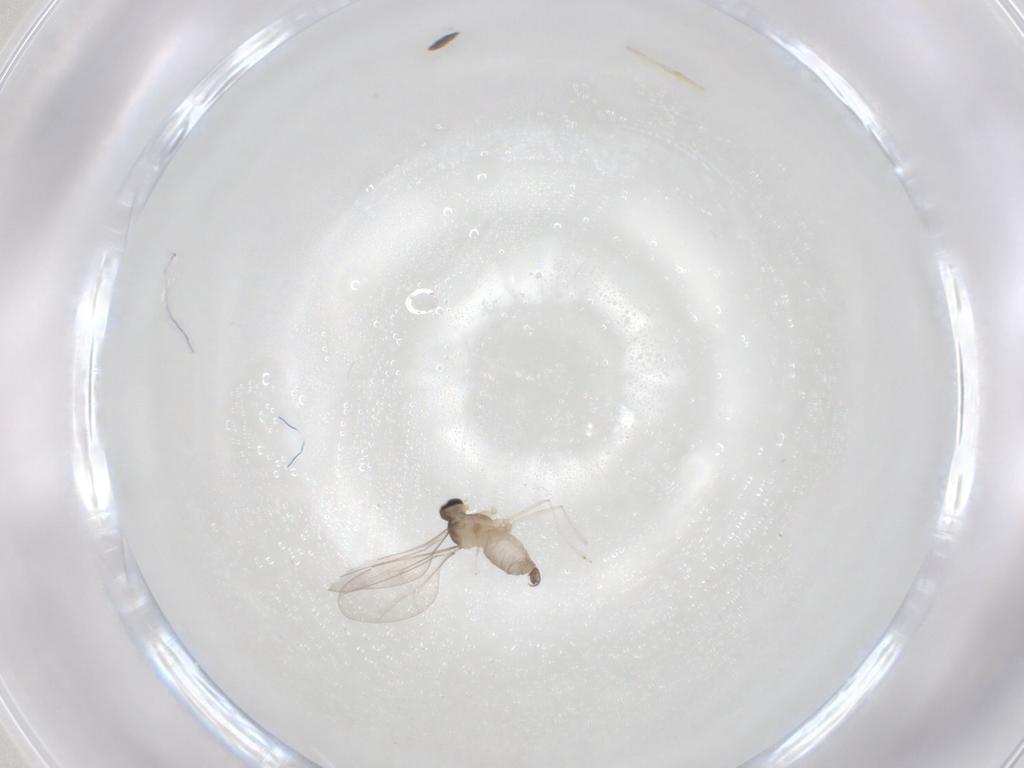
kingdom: Animalia
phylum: Arthropoda
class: Insecta
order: Diptera
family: Cecidomyiidae
